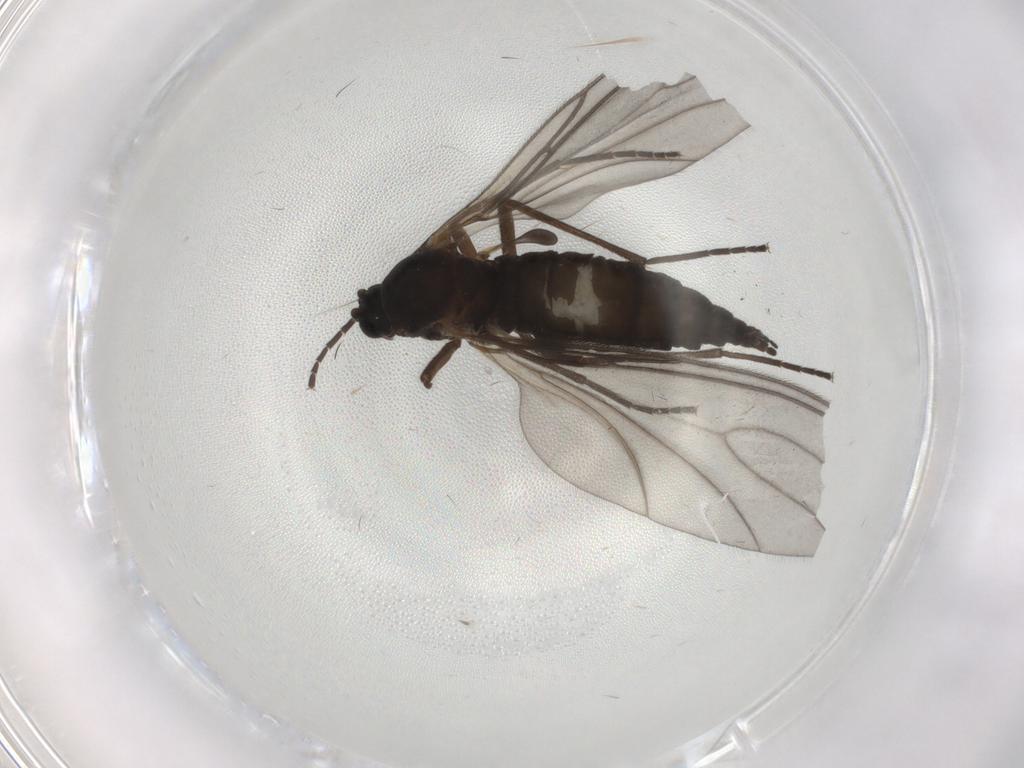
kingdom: Animalia
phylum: Arthropoda
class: Insecta
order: Diptera
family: Sciaridae
